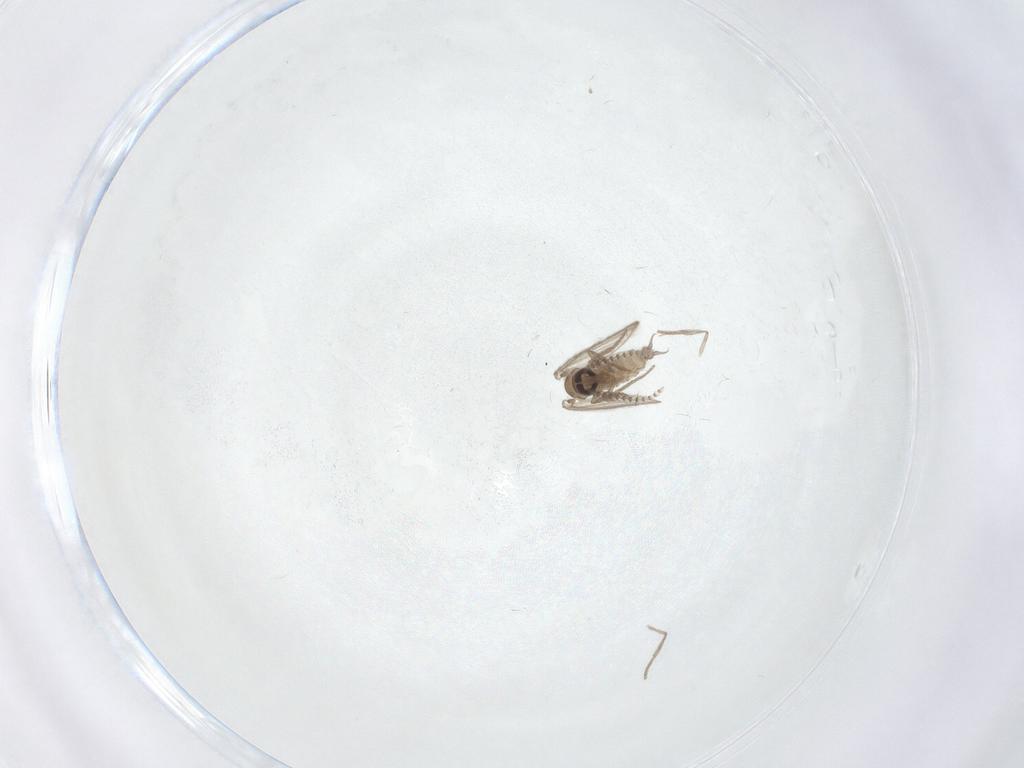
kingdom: Animalia
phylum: Arthropoda
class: Insecta
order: Diptera
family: Psychodidae
